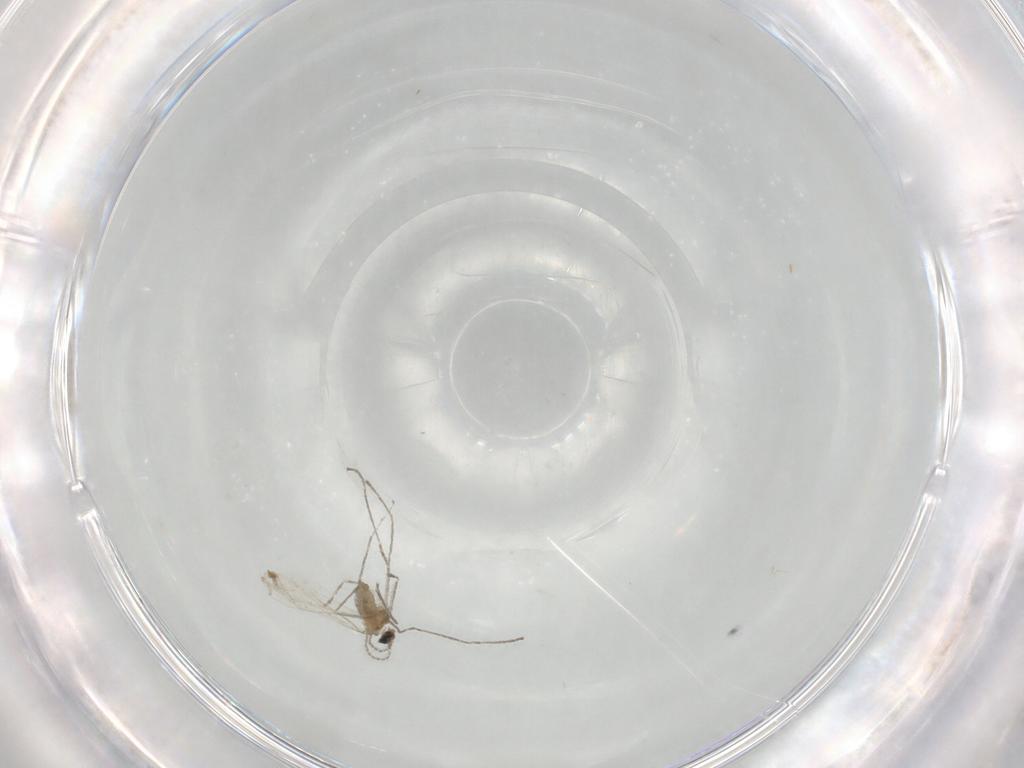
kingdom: Animalia
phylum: Arthropoda
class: Insecta
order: Diptera
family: Cecidomyiidae
